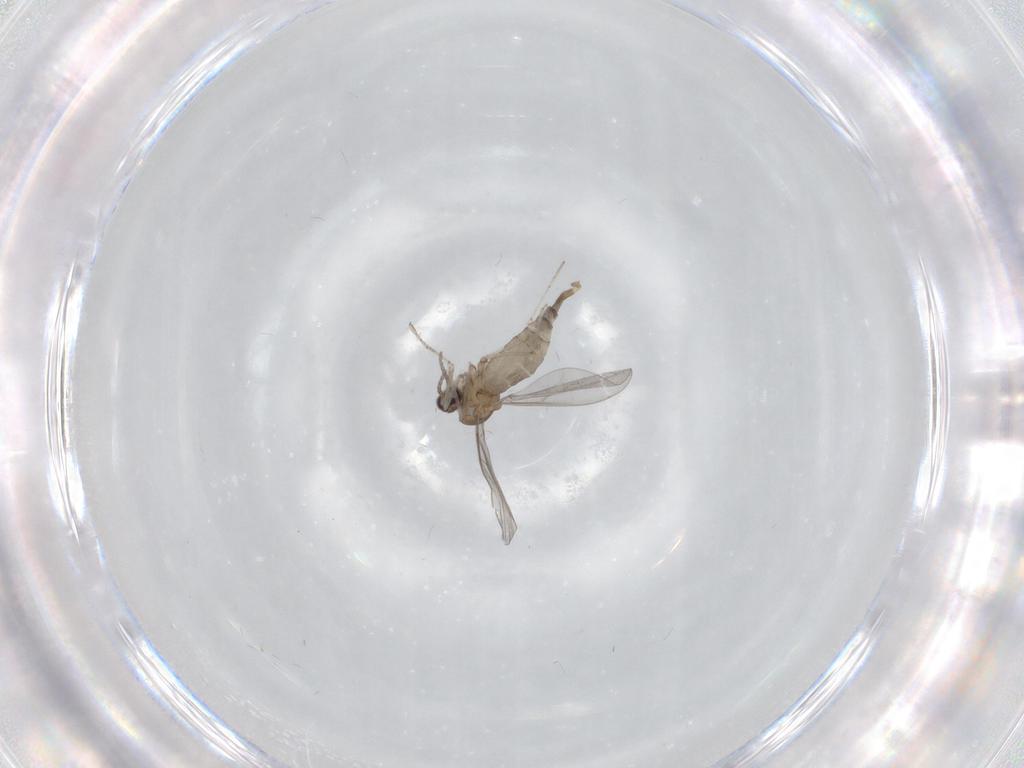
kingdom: Animalia
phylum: Arthropoda
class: Insecta
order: Diptera
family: Cecidomyiidae
